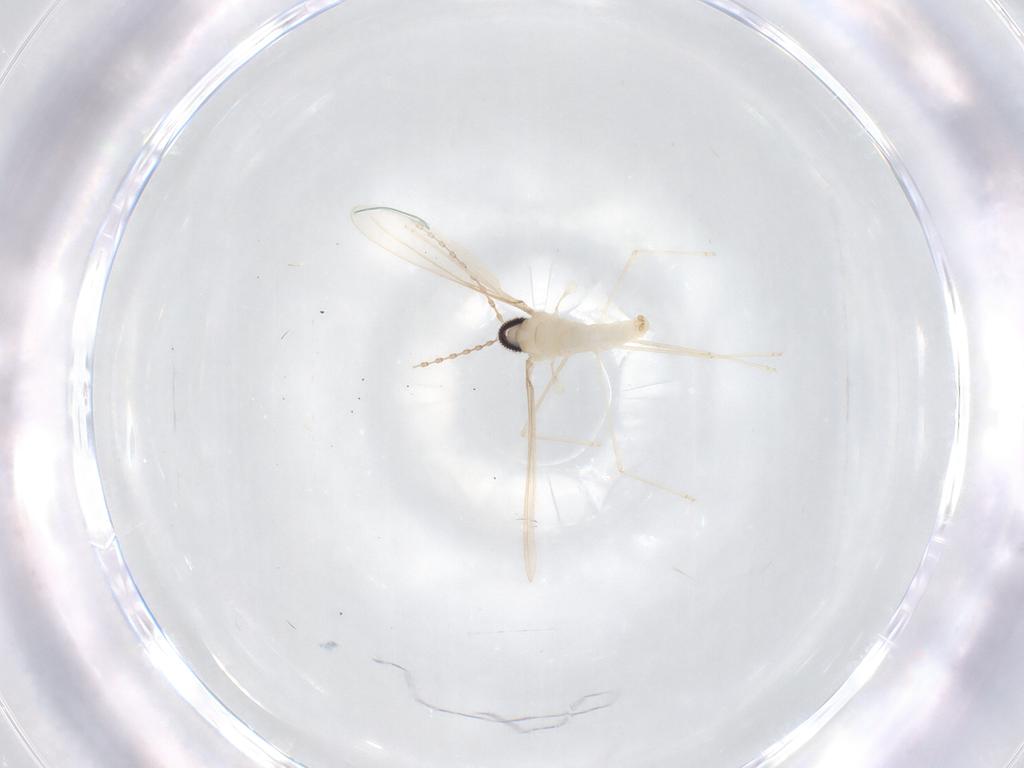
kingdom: Animalia
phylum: Arthropoda
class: Insecta
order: Diptera
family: Cecidomyiidae
